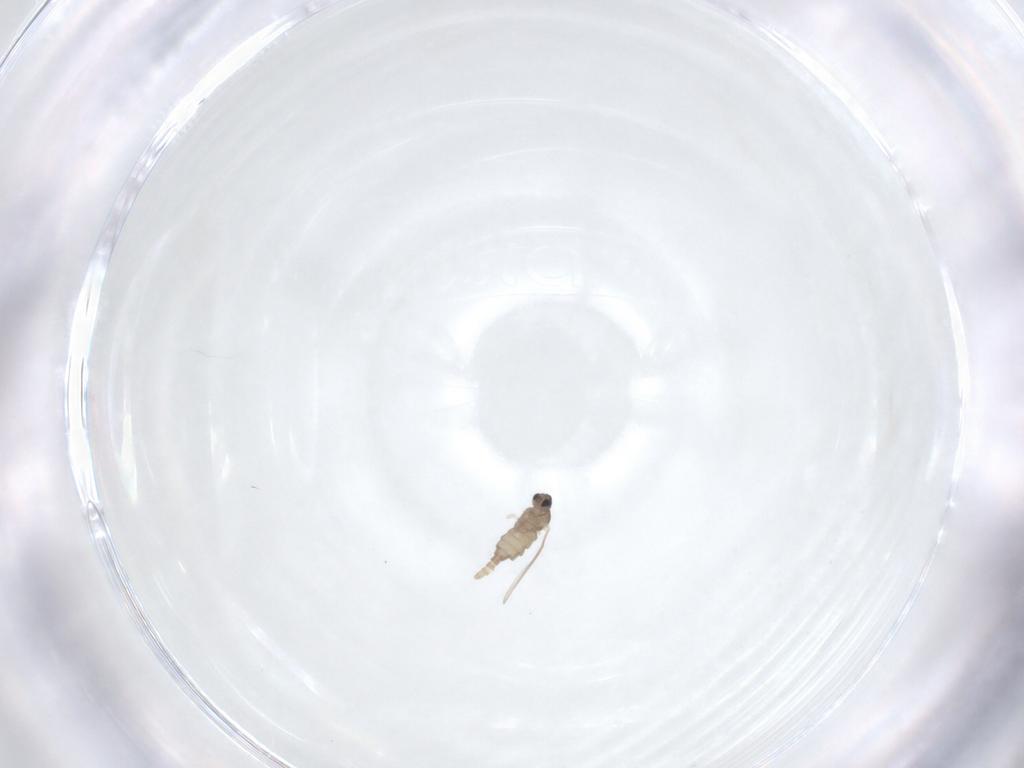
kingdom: Animalia
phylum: Arthropoda
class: Insecta
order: Diptera
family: Cecidomyiidae
